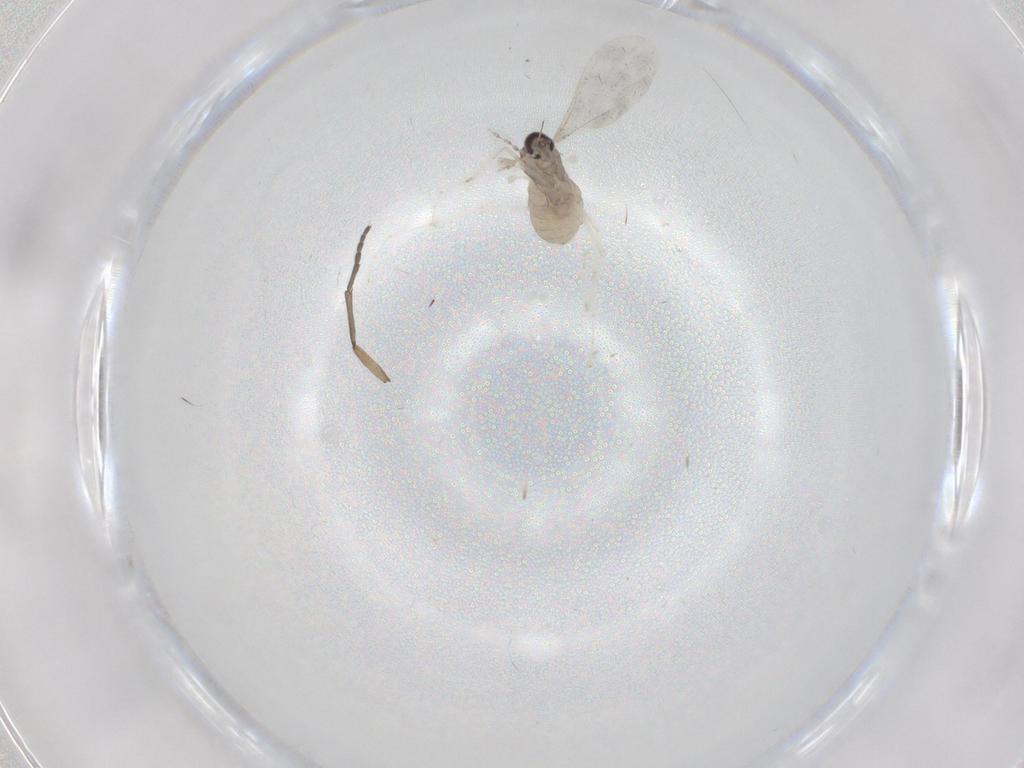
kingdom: Animalia
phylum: Arthropoda
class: Insecta
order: Diptera
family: Sciaridae
